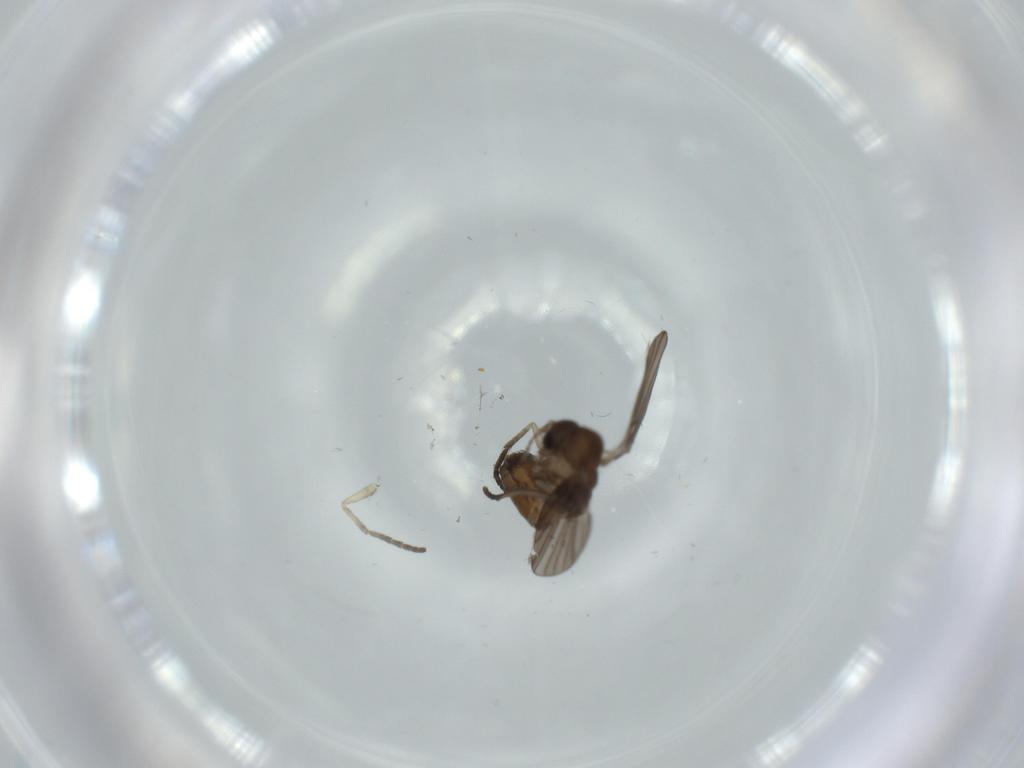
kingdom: Animalia
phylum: Arthropoda
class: Insecta
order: Diptera
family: Psychodidae
